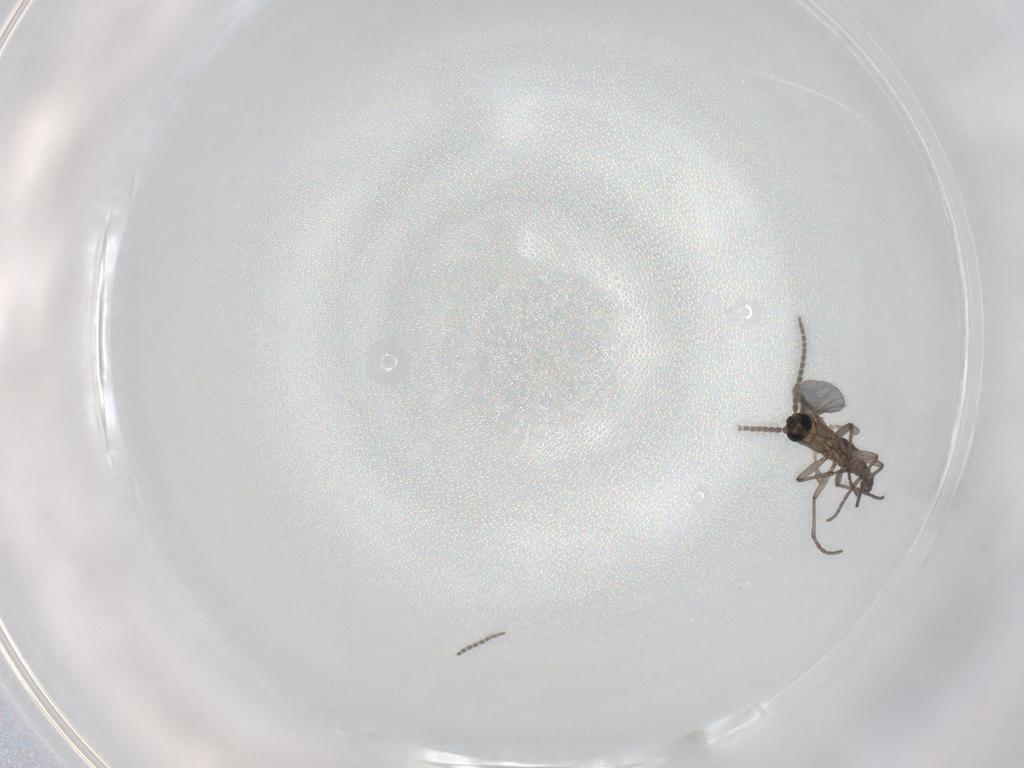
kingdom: Animalia
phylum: Arthropoda
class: Insecta
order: Diptera
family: Sciaridae
